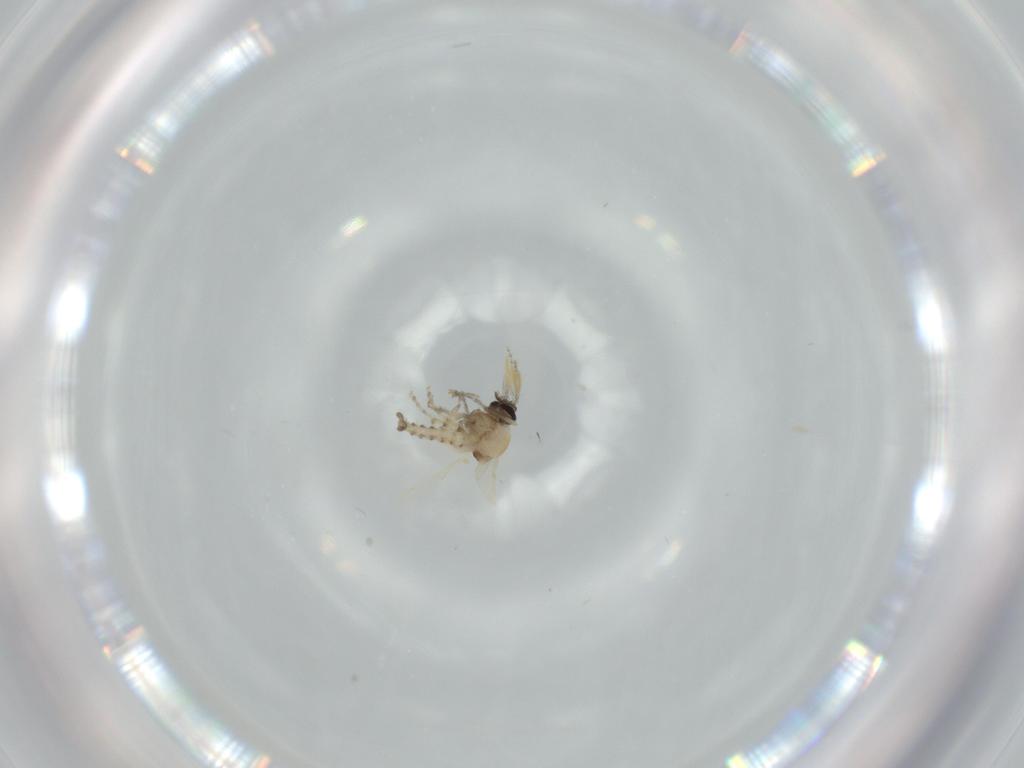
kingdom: Animalia
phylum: Arthropoda
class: Insecta
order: Diptera
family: Ceratopogonidae
